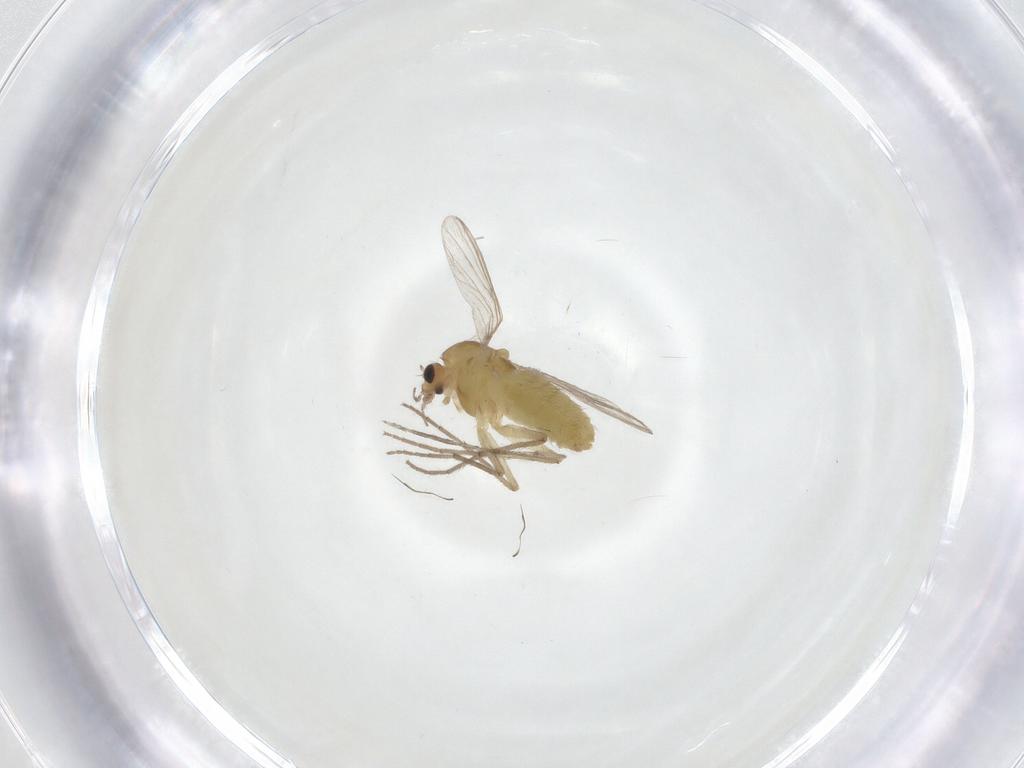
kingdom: Animalia
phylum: Arthropoda
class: Insecta
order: Diptera
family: Chironomidae
